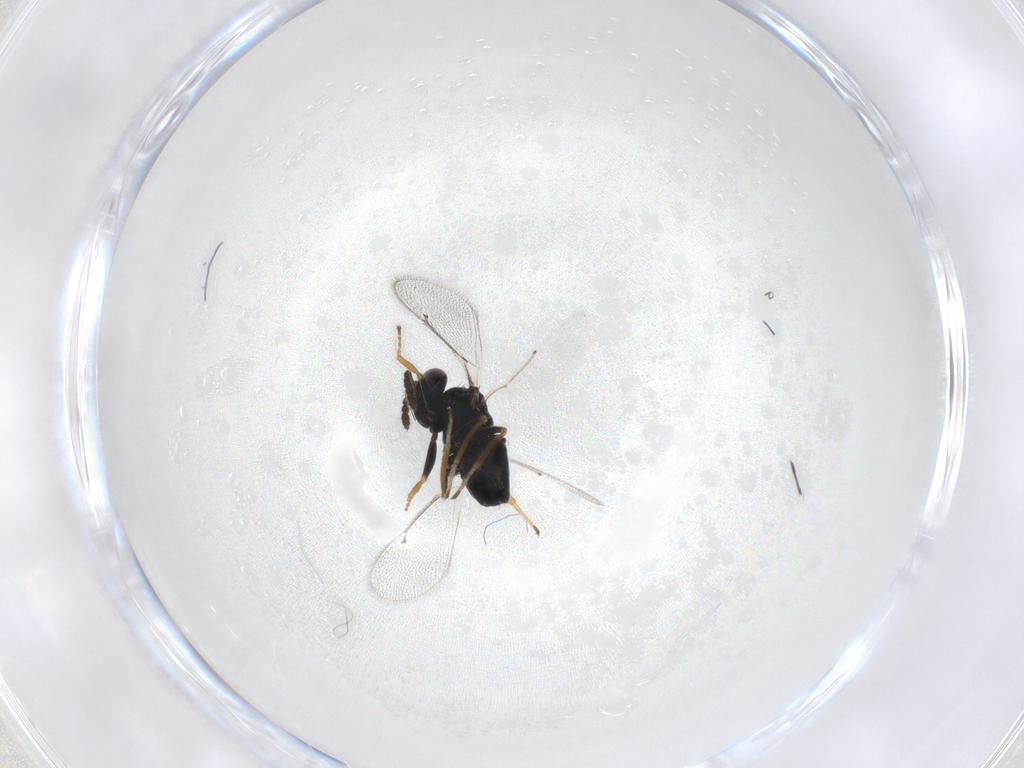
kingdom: Animalia
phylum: Arthropoda
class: Insecta
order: Hymenoptera
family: Eulophidae
